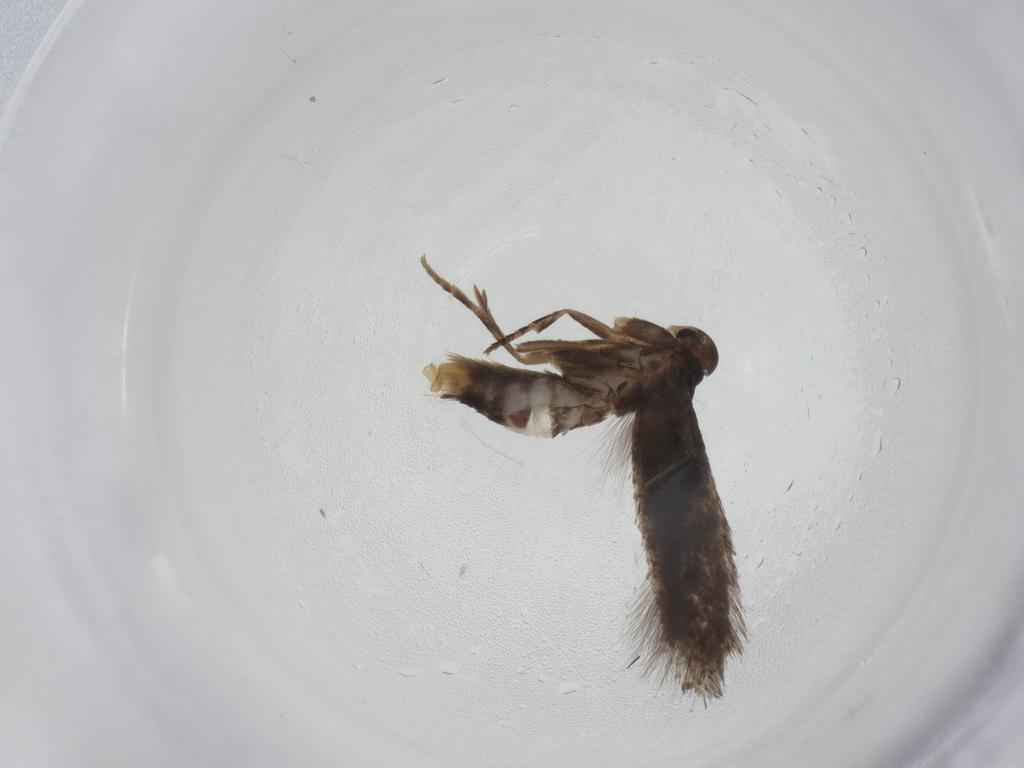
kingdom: Animalia
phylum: Arthropoda
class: Insecta
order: Lepidoptera
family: Elachistidae
